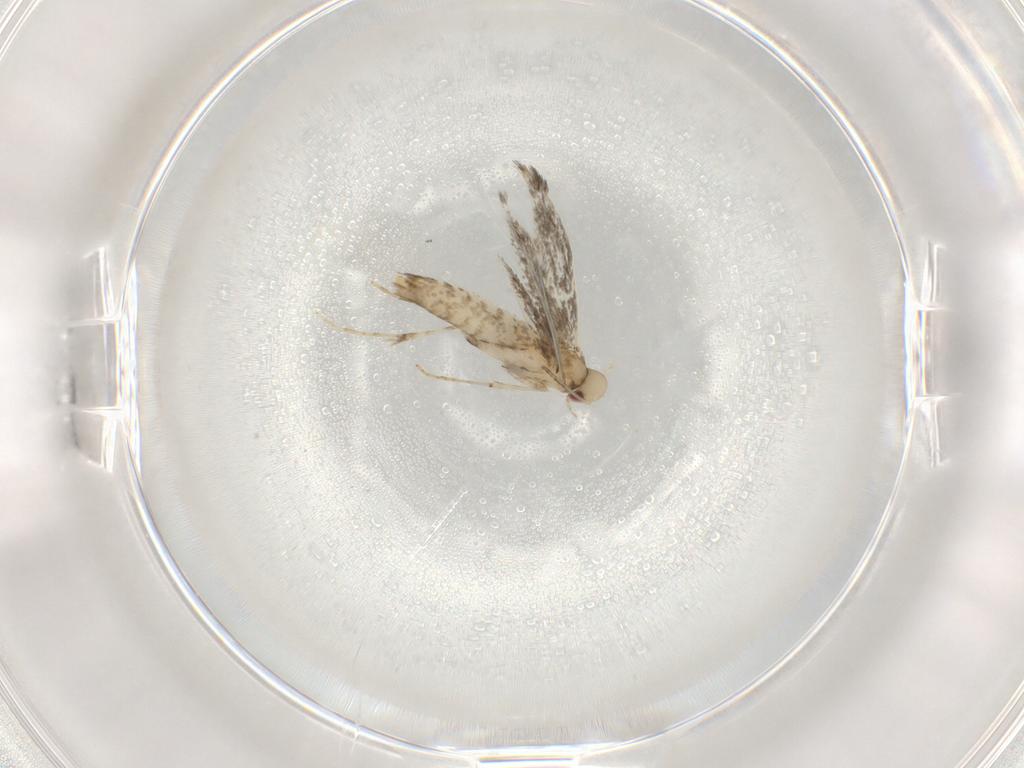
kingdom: Animalia
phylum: Arthropoda
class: Insecta
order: Lepidoptera
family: Gracillariidae
